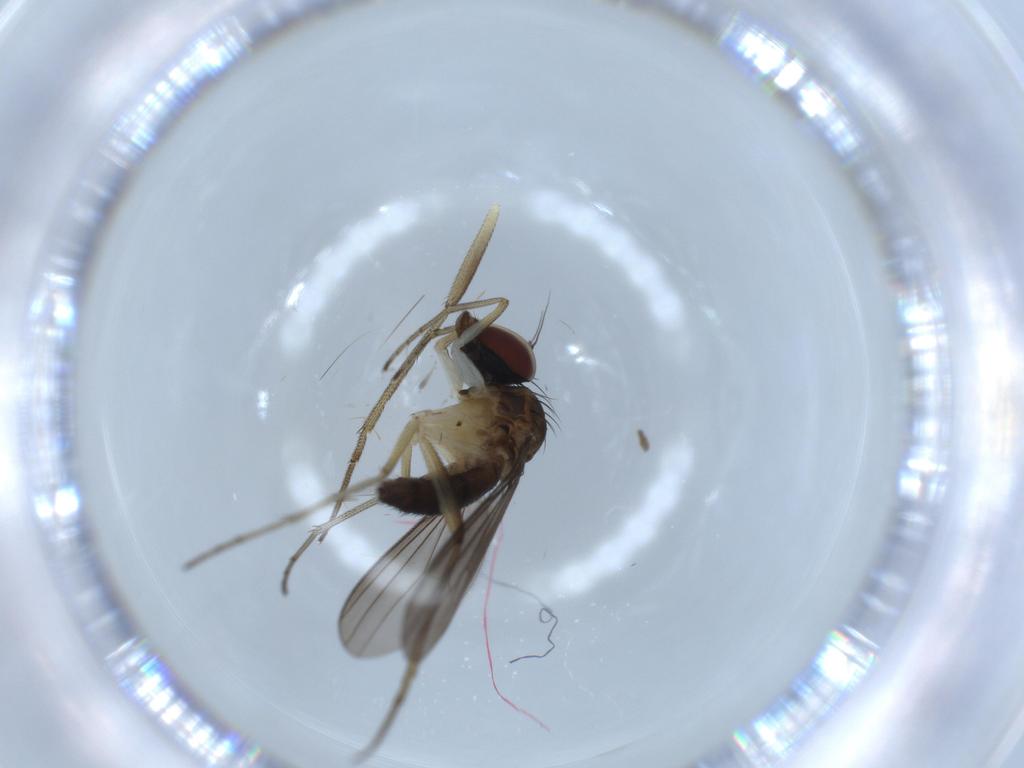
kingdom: Animalia
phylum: Arthropoda
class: Insecta
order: Diptera
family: Dolichopodidae
